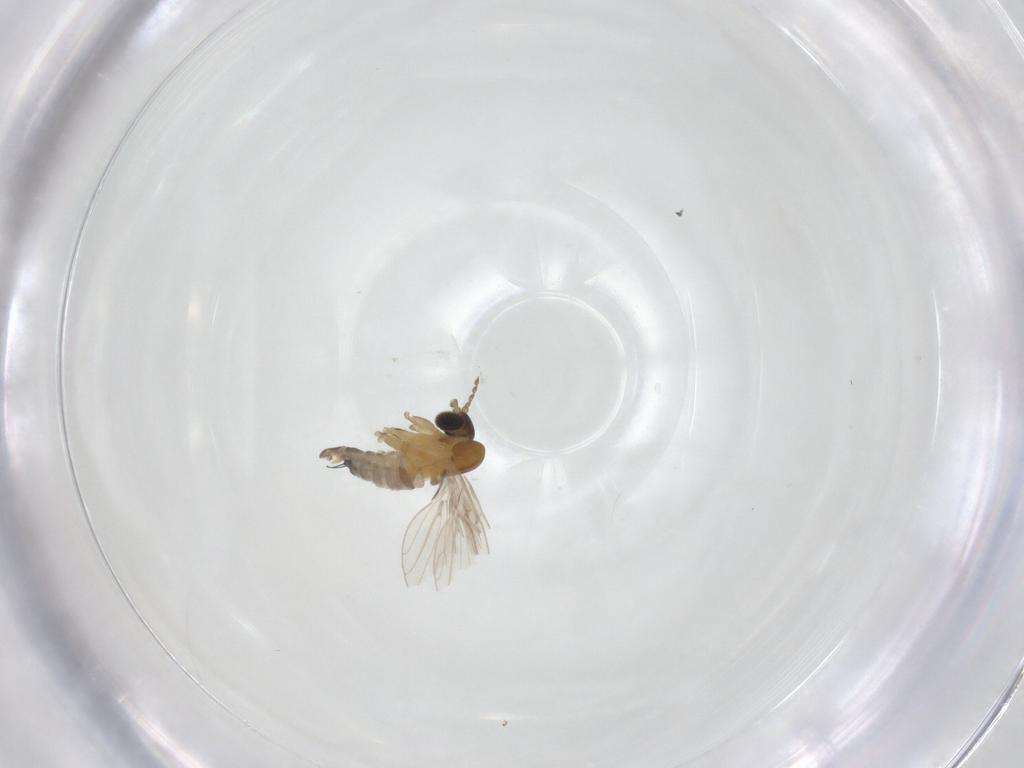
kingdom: Animalia
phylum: Arthropoda
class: Insecta
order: Diptera
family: Psychodidae
